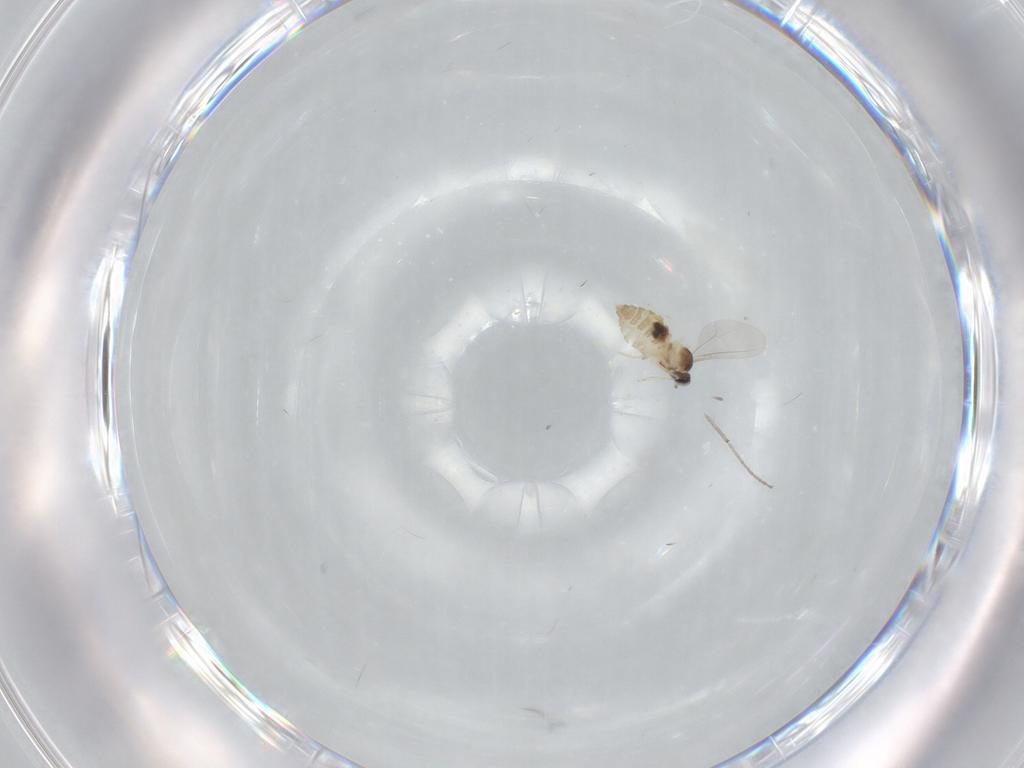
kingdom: Animalia
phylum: Arthropoda
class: Insecta
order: Diptera
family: Cecidomyiidae
